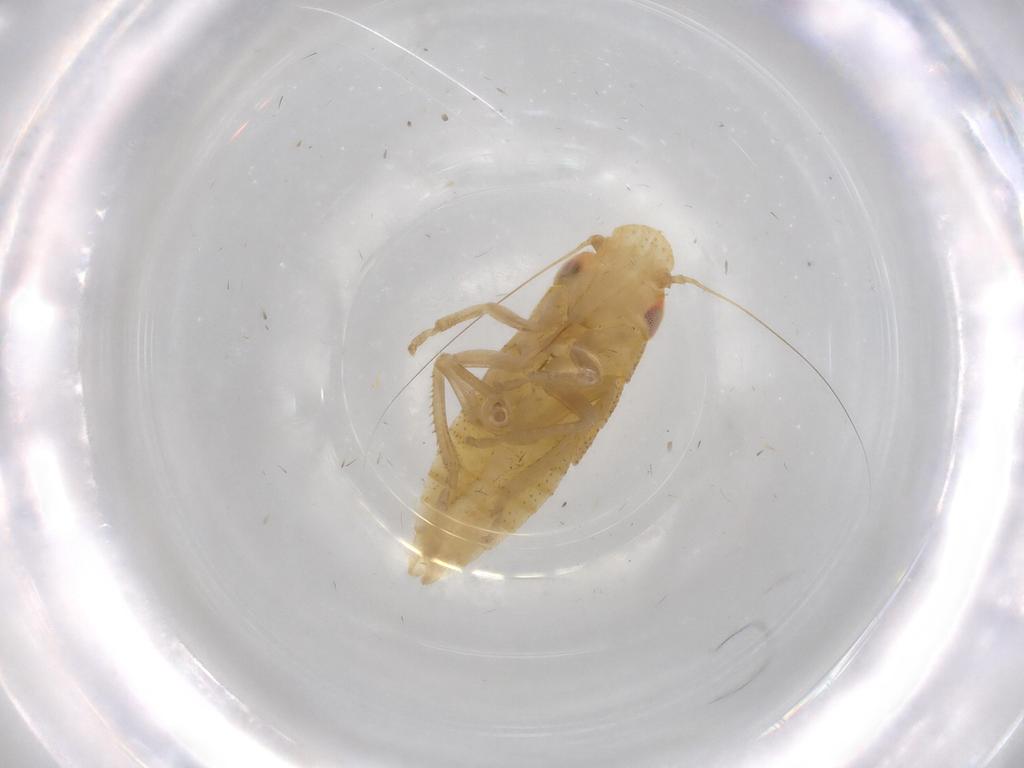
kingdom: Animalia
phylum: Arthropoda
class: Insecta
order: Hemiptera
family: Cicadellidae
